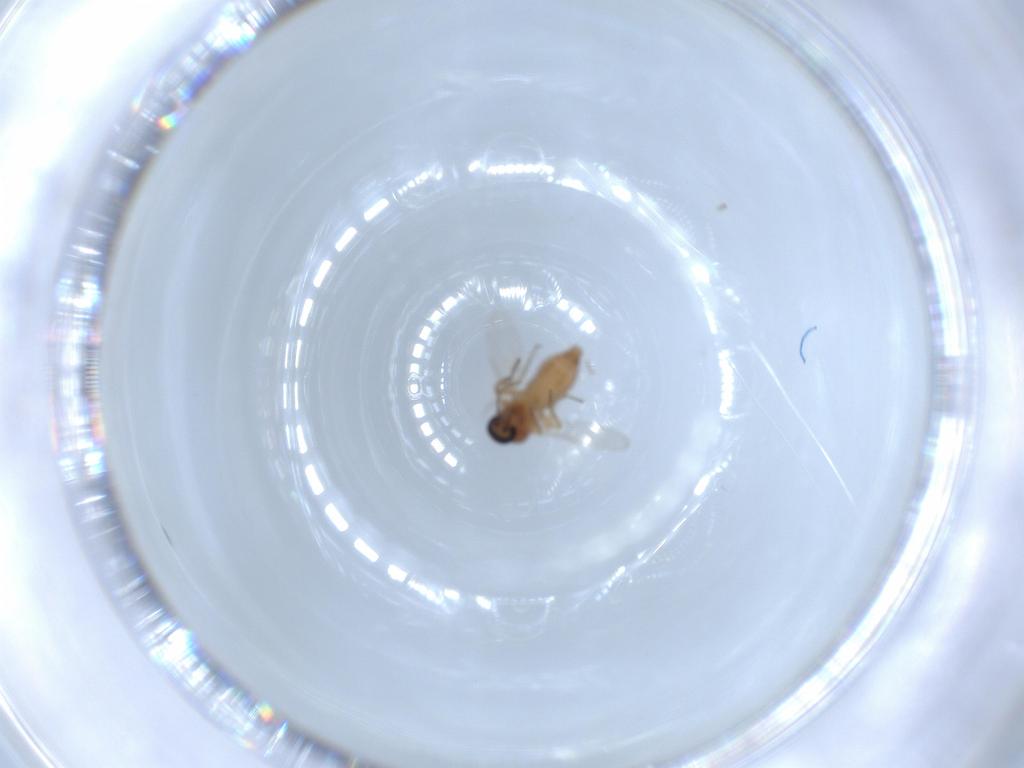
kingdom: Animalia
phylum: Arthropoda
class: Insecta
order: Diptera
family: Ceratopogonidae
